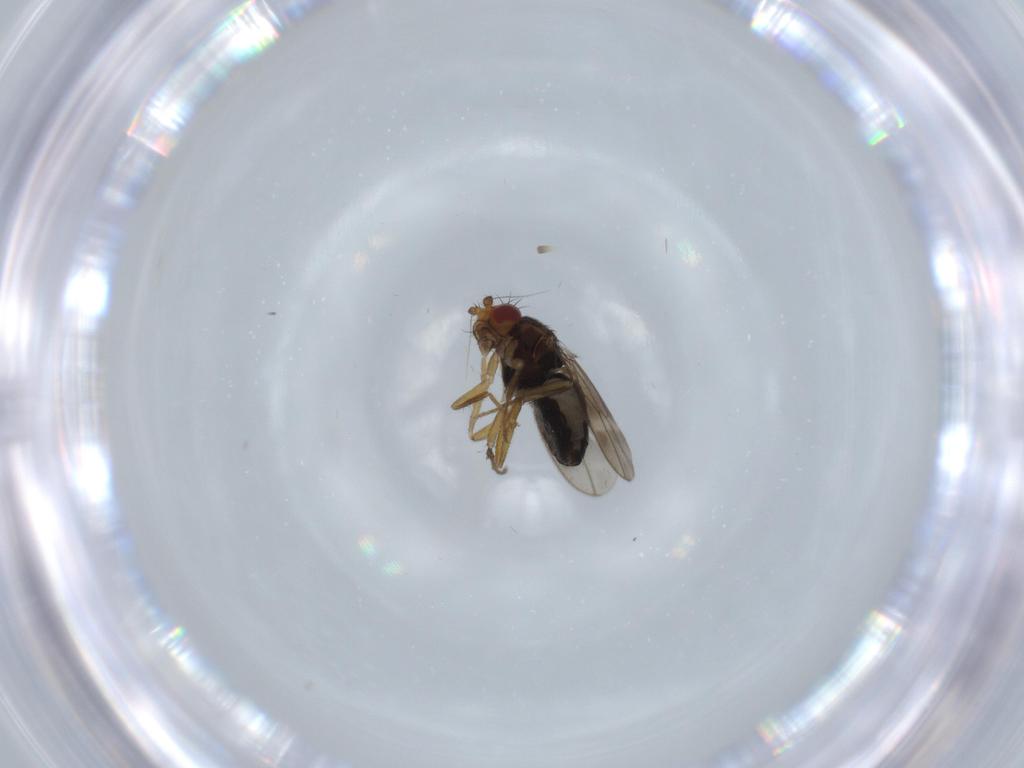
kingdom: Animalia
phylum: Arthropoda
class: Insecta
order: Diptera
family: Sphaeroceridae
